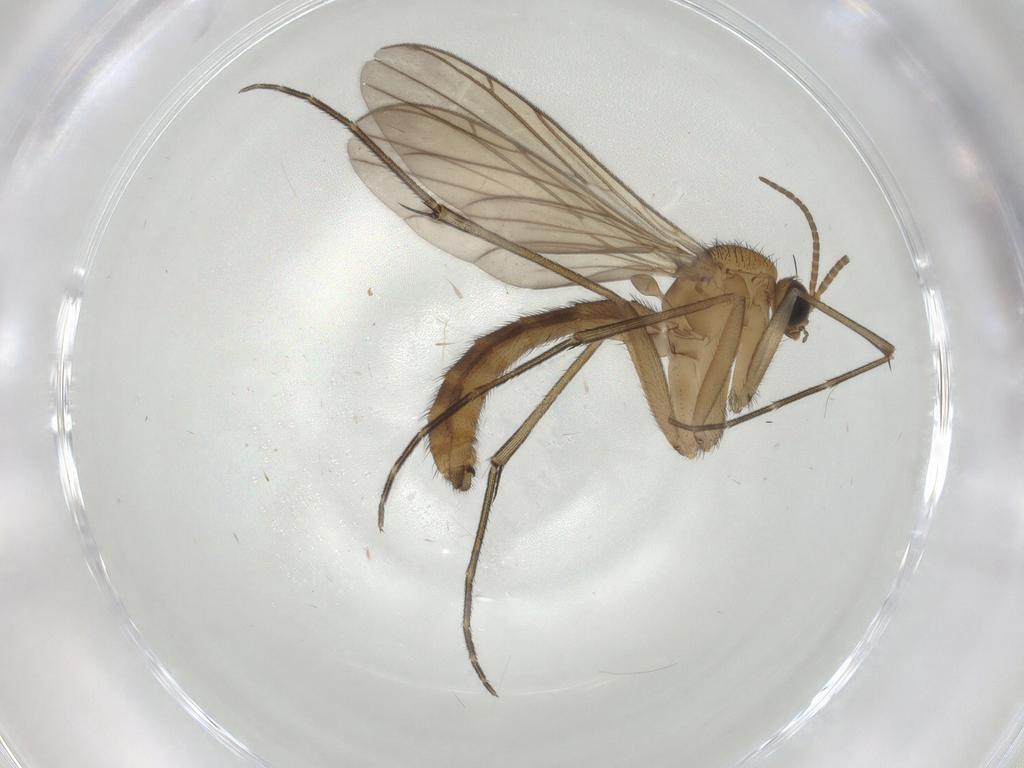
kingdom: Animalia
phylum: Arthropoda
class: Insecta
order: Diptera
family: Keroplatidae
